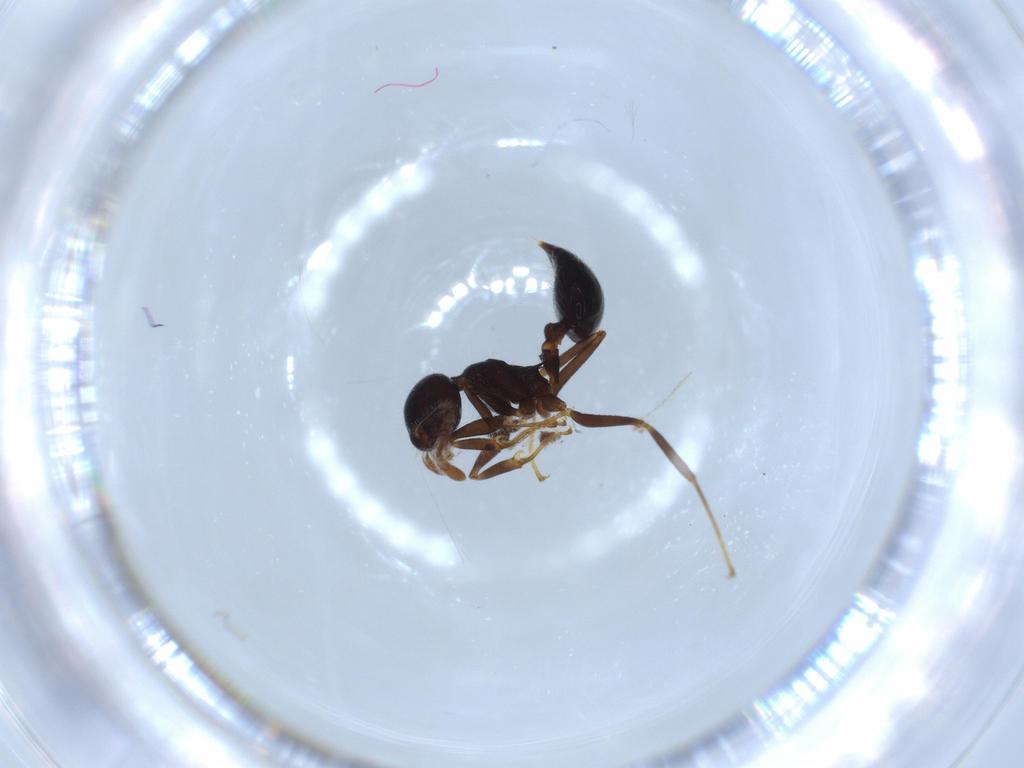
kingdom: Animalia
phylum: Arthropoda
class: Insecta
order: Hymenoptera
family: Formicidae
